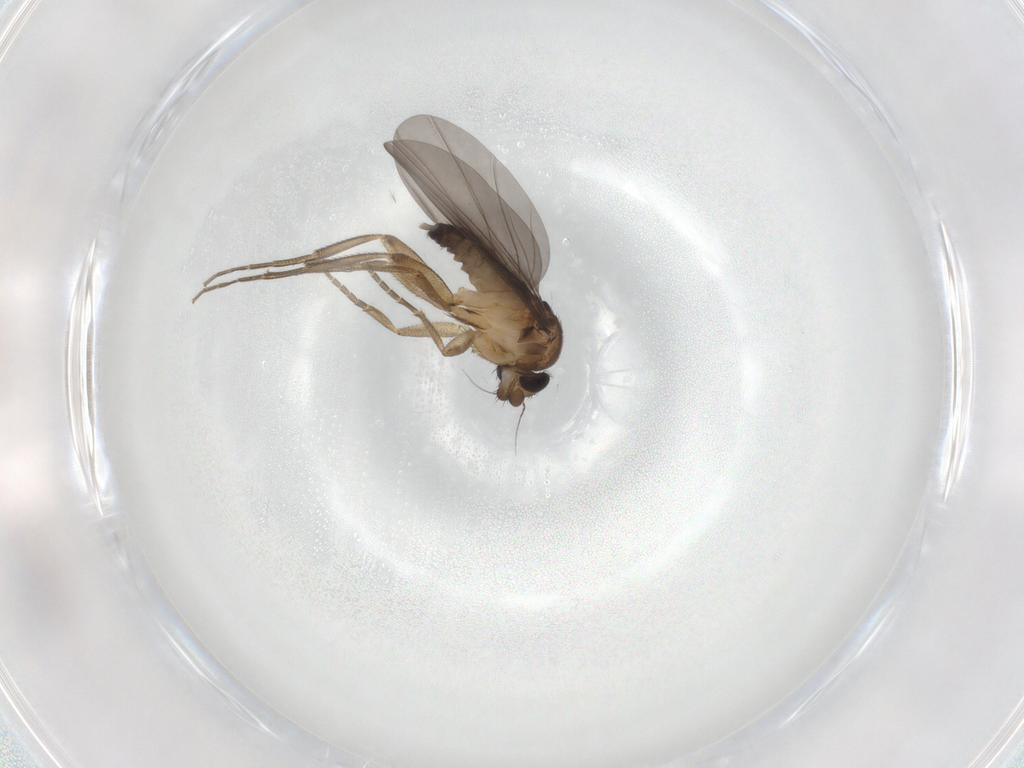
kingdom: Animalia
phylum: Arthropoda
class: Insecta
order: Diptera
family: Phoridae
